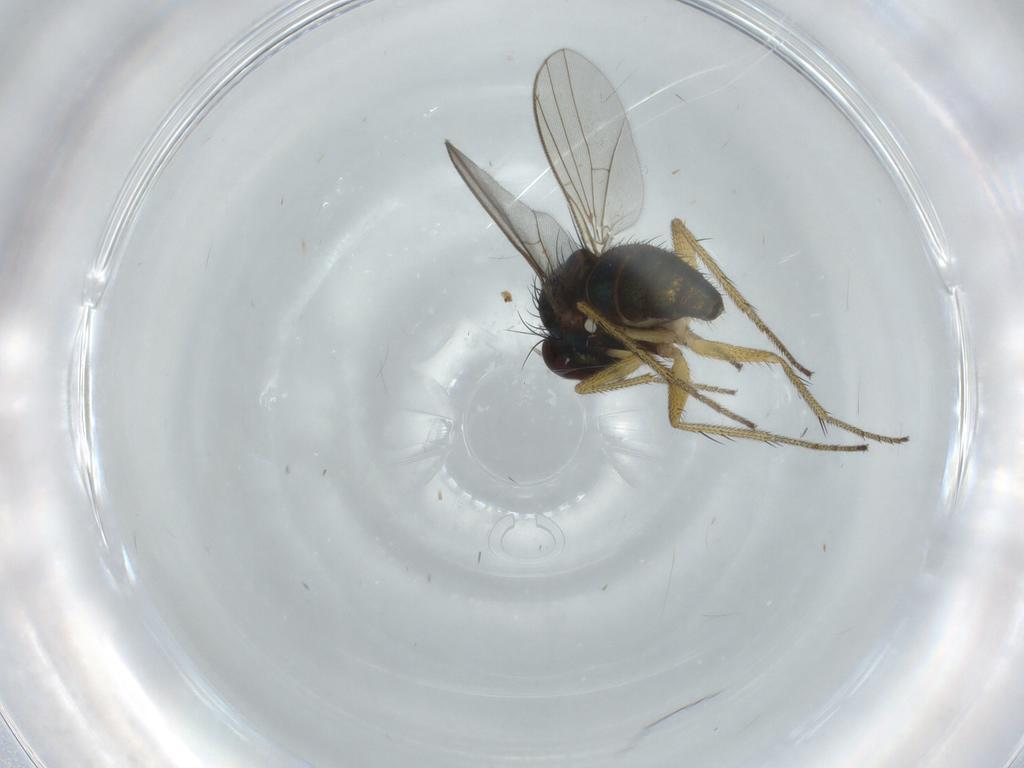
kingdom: Animalia
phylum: Arthropoda
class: Insecta
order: Diptera
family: Dolichopodidae
